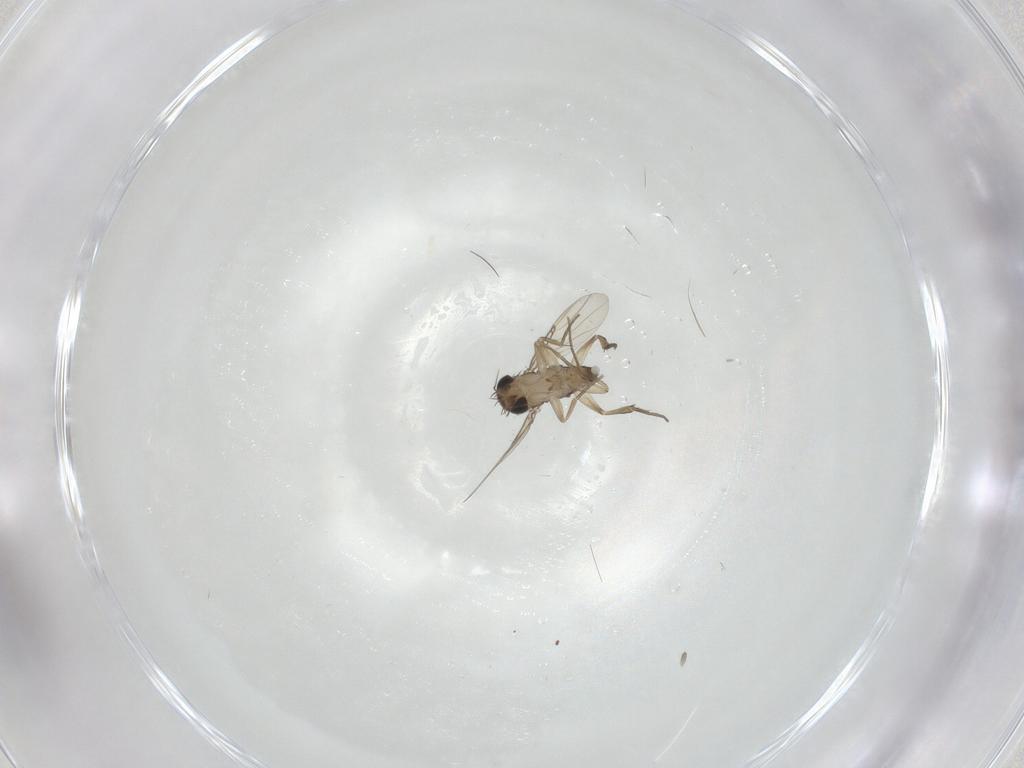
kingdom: Animalia
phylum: Arthropoda
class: Insecta
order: Diptera
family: Phoridae
